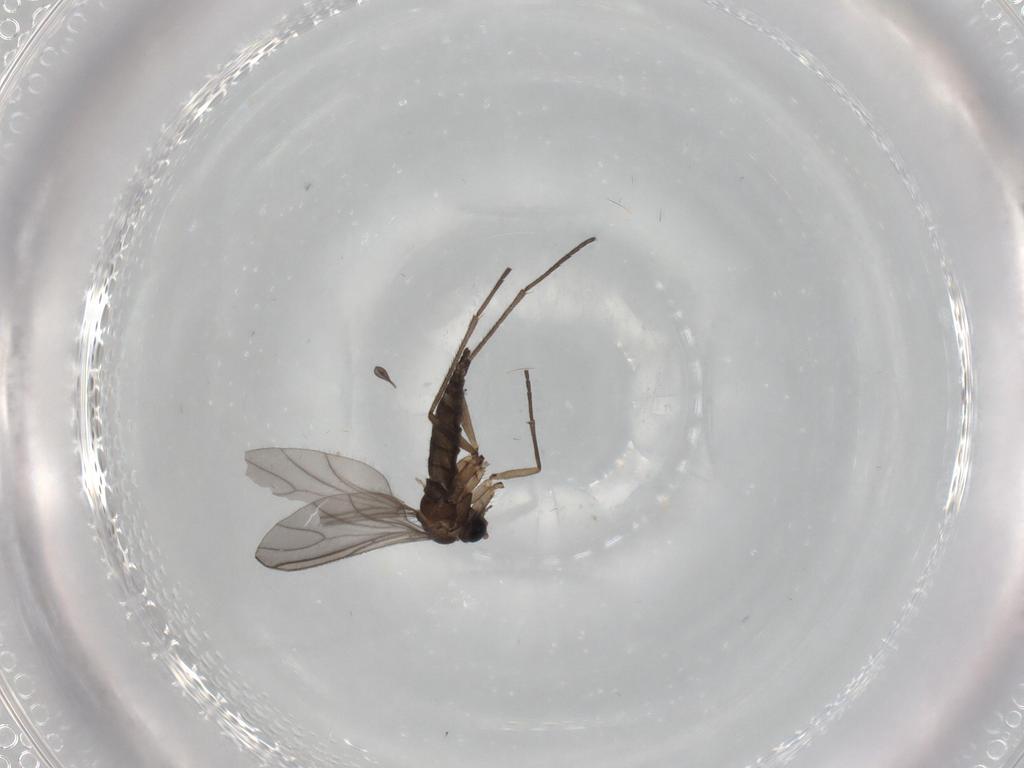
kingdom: Animalia
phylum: Arthropoda
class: Insecta
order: Diptera
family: Sciaridae
